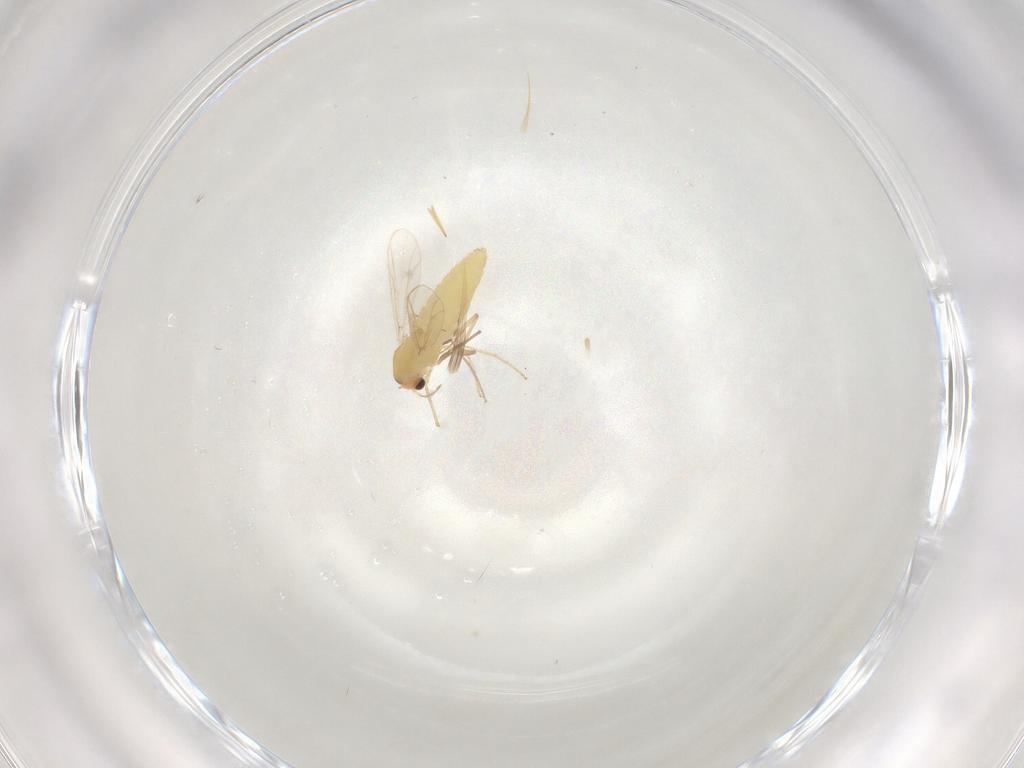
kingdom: Animalia
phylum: Arthropoda
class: Insecta
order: Diptera
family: Chironomidae
